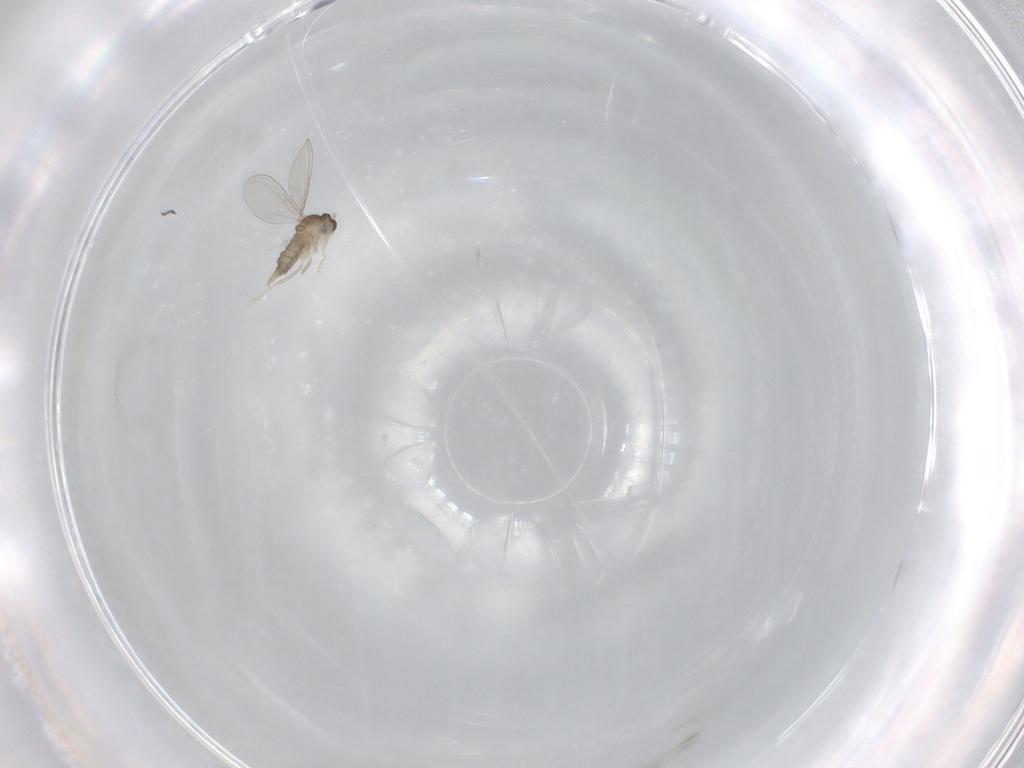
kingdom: Animalia
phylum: Arthropoda
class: Insecta
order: Diptera
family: Cecidomyiidae
